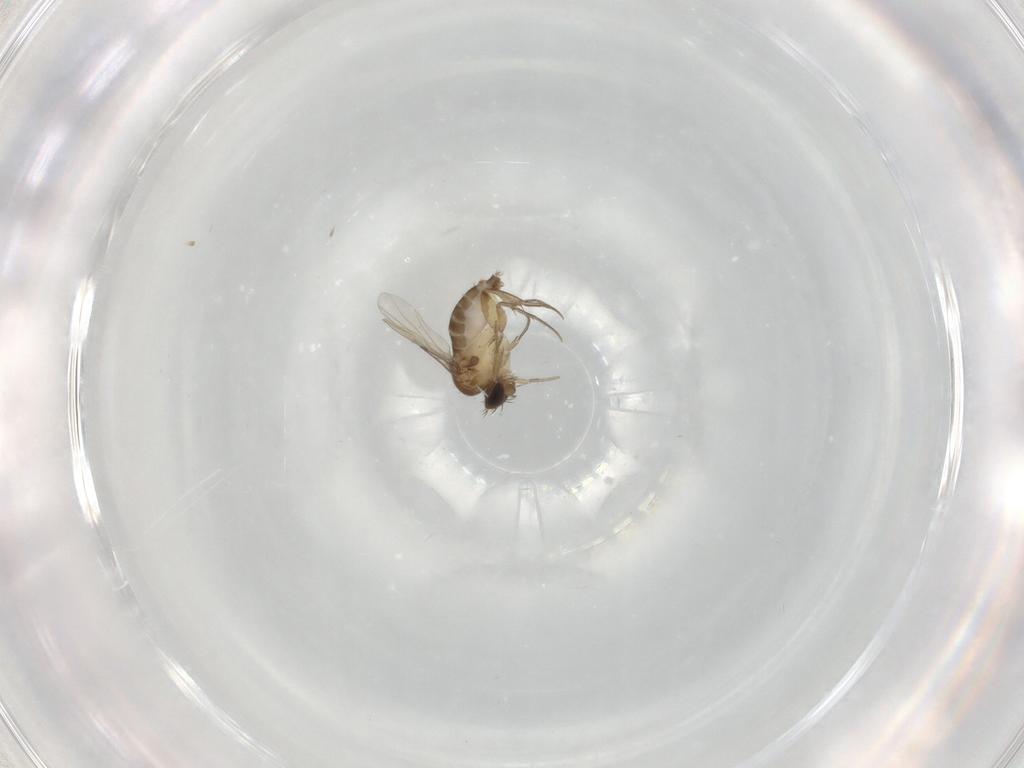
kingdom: Animalia
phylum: Arthropoda
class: Insecta
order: Diptera
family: Phoridae
